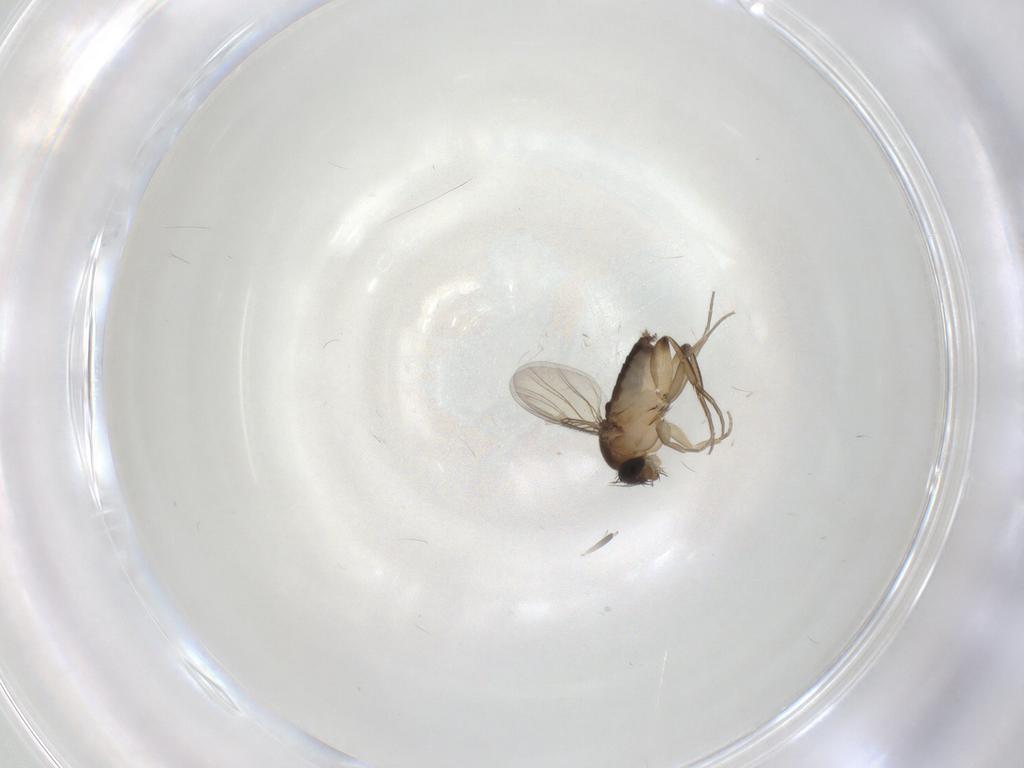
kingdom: Animalia
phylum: Arthropoda
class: Insecta
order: Diptera
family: Phoridae
